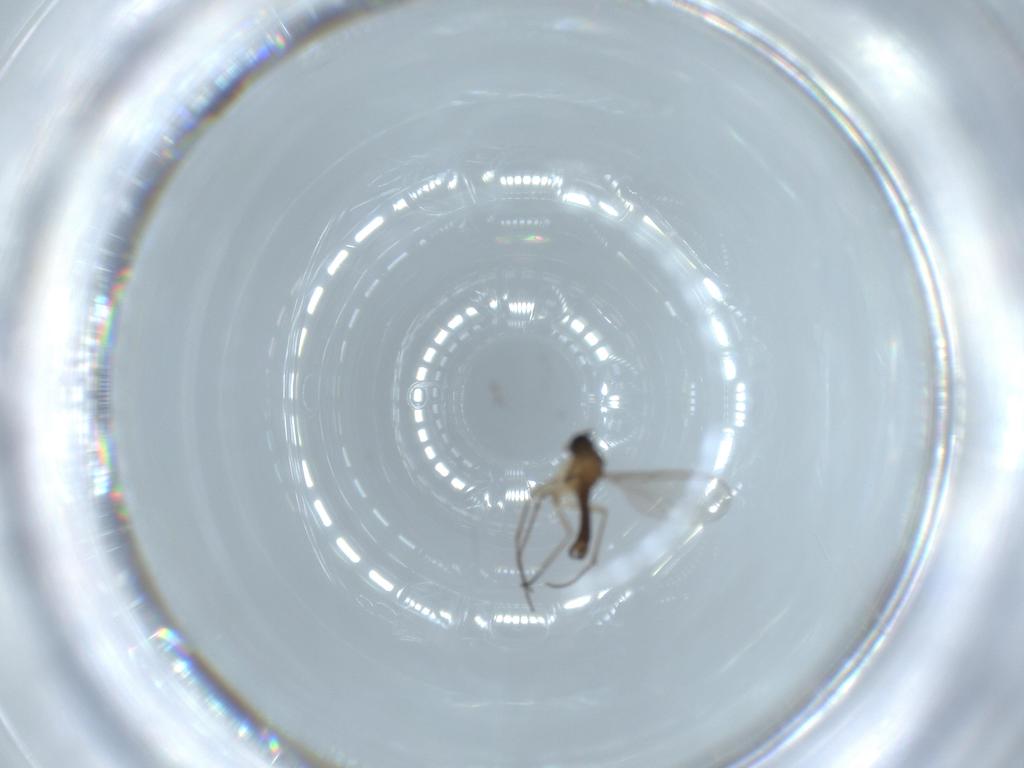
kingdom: Animalia
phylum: Arthropoda
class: Insecta
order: Diptera
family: Sciaridae
